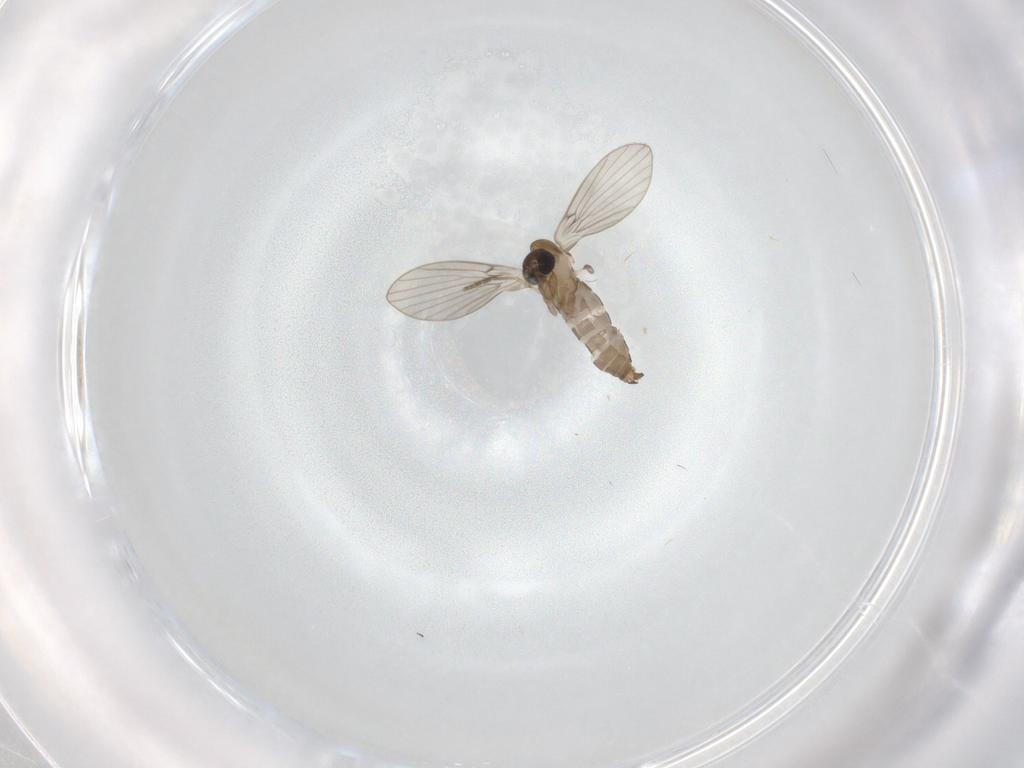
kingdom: Animalia
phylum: Arthropoda
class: Insecta
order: Diptera
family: Psychodidae
